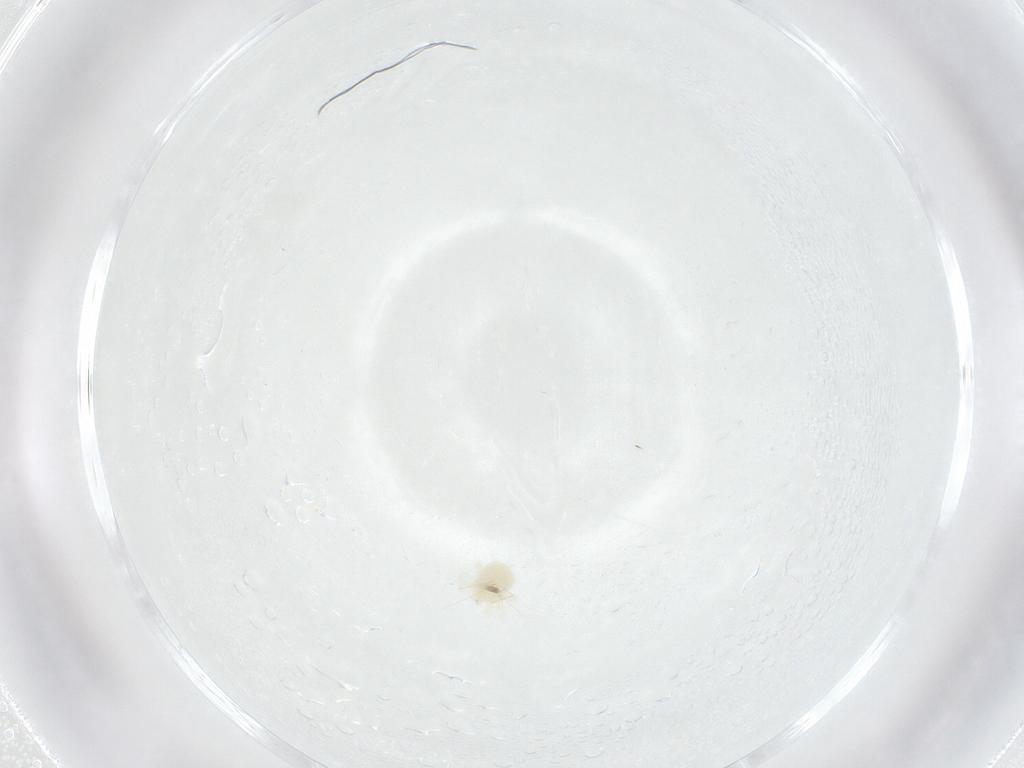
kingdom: Animalia
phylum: Arthropoda
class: Arachnida
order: Trombidiformes
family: Anystidae
